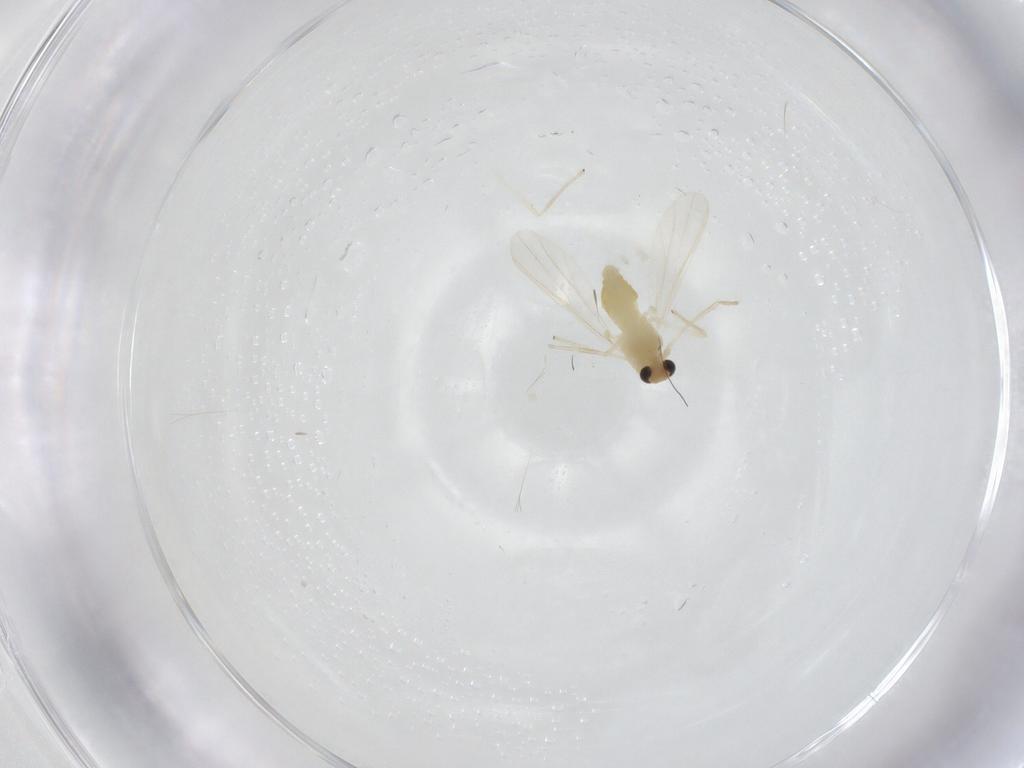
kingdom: Animalia
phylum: Arthropoda
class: Insecta
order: Diptera
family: Chironomidae
